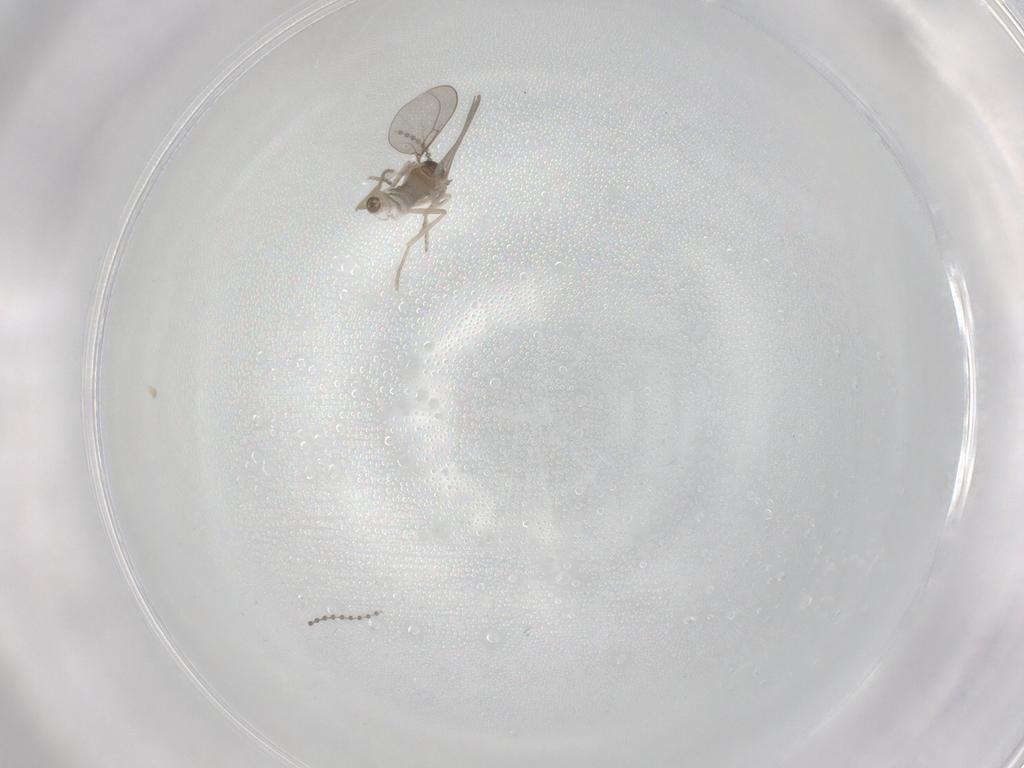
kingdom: Animalia
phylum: Arthropoda
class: Insecta
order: Diptera
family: Cecidomyiidae
